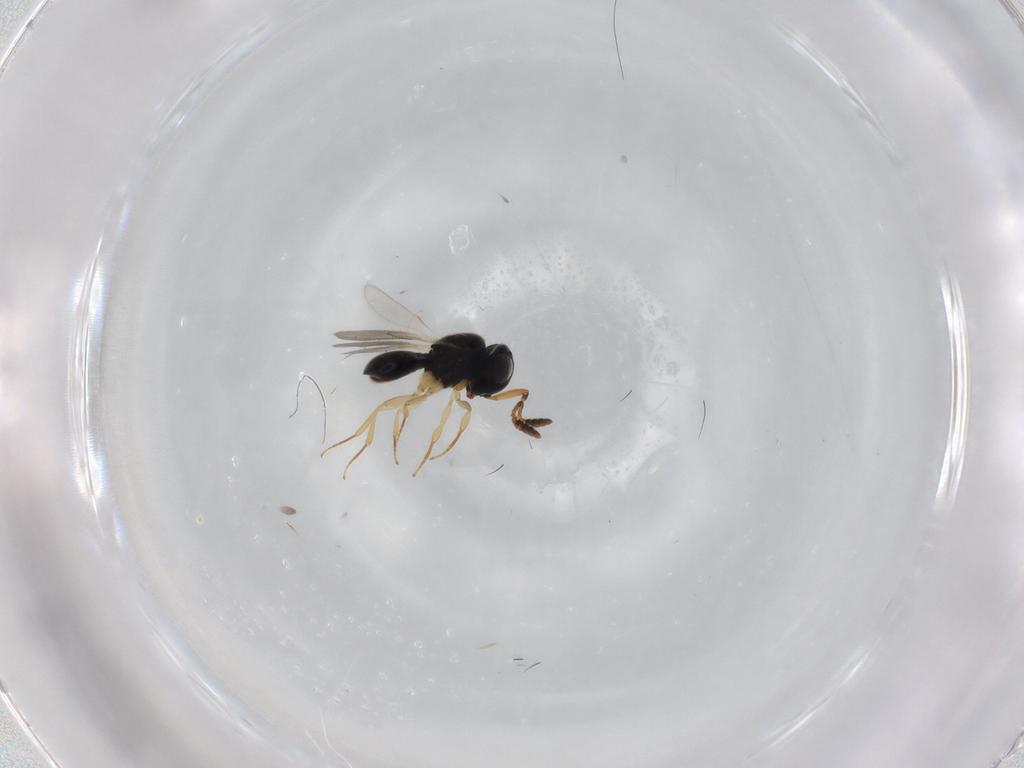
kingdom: Animalia
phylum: Arthropoda
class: Insecta
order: Hymenoptera
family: Scelionidae
